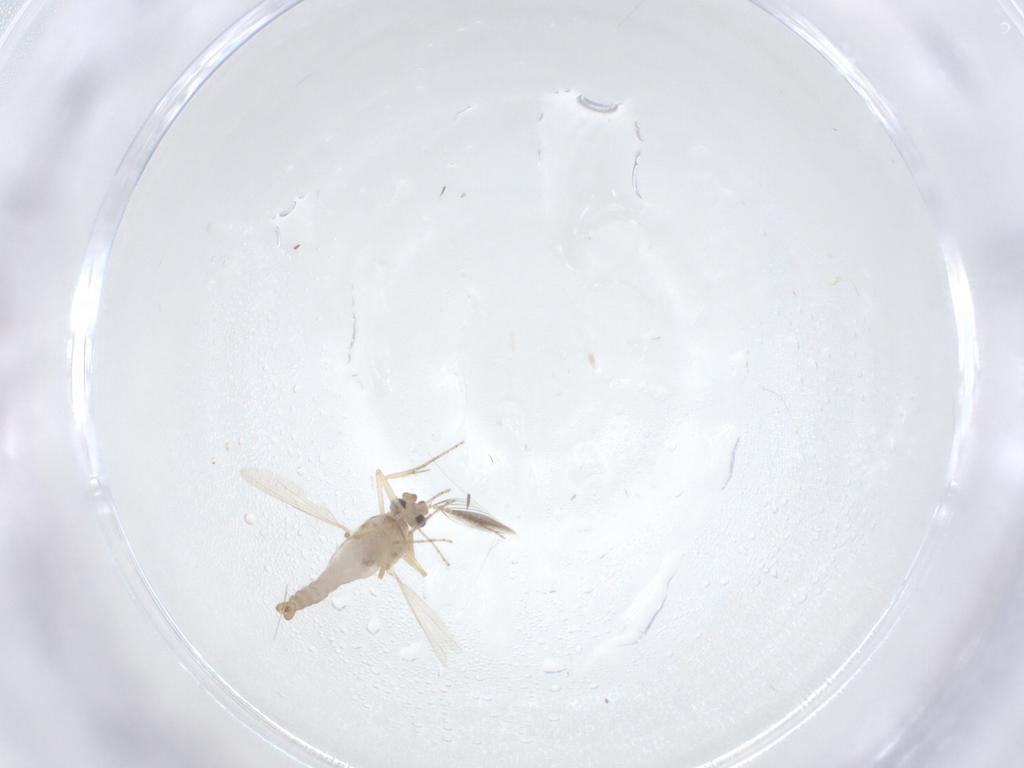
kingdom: Animalia
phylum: Arthropoda
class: Insecta
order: Diptera
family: Ceratopogonidae
